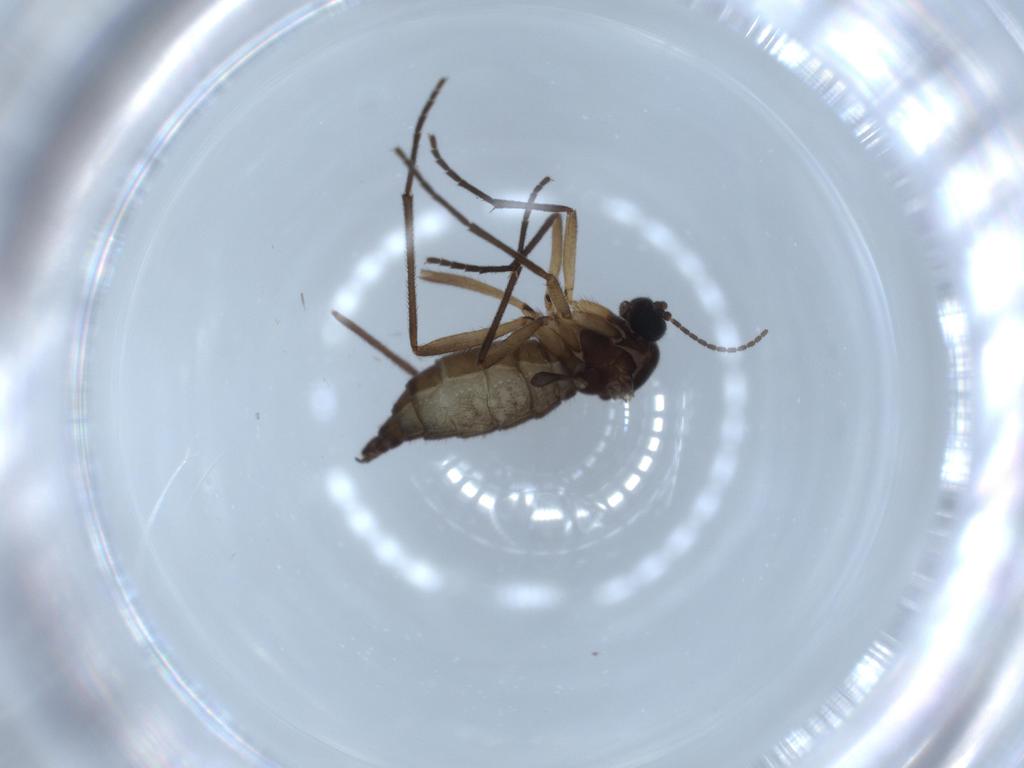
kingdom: Animalia
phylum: Arthropoda
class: Insecta
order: Diptera
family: Sciaridae
